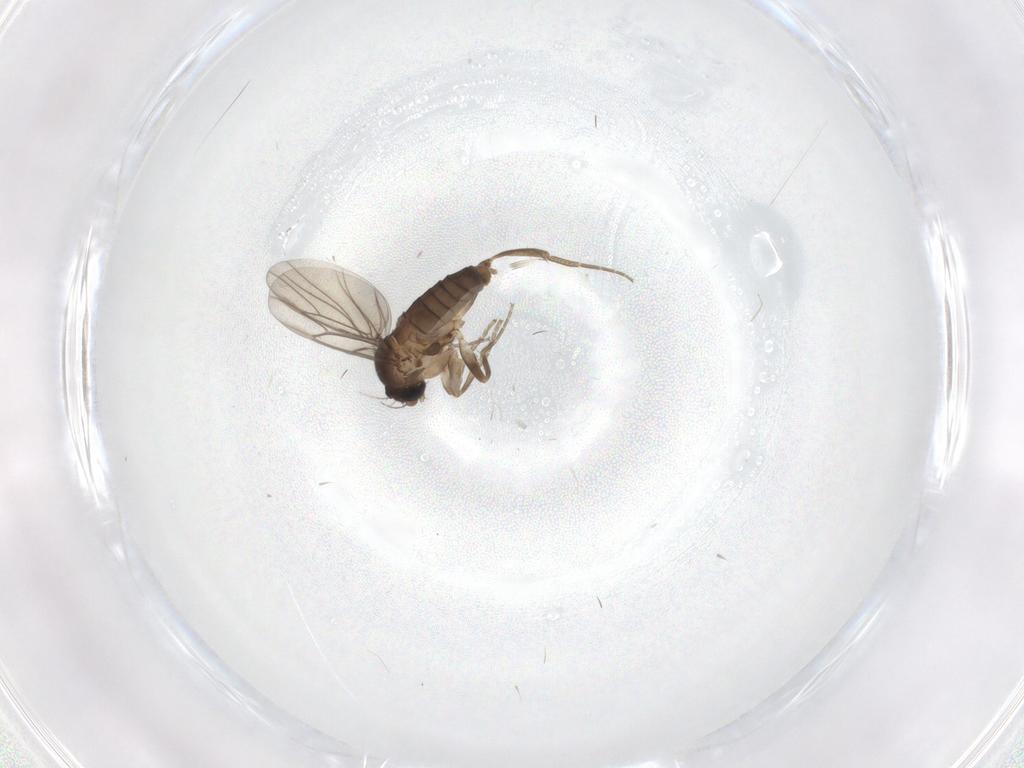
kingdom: Animalia
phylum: Arthropoda
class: Insecta
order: Diptera
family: Phoridae
